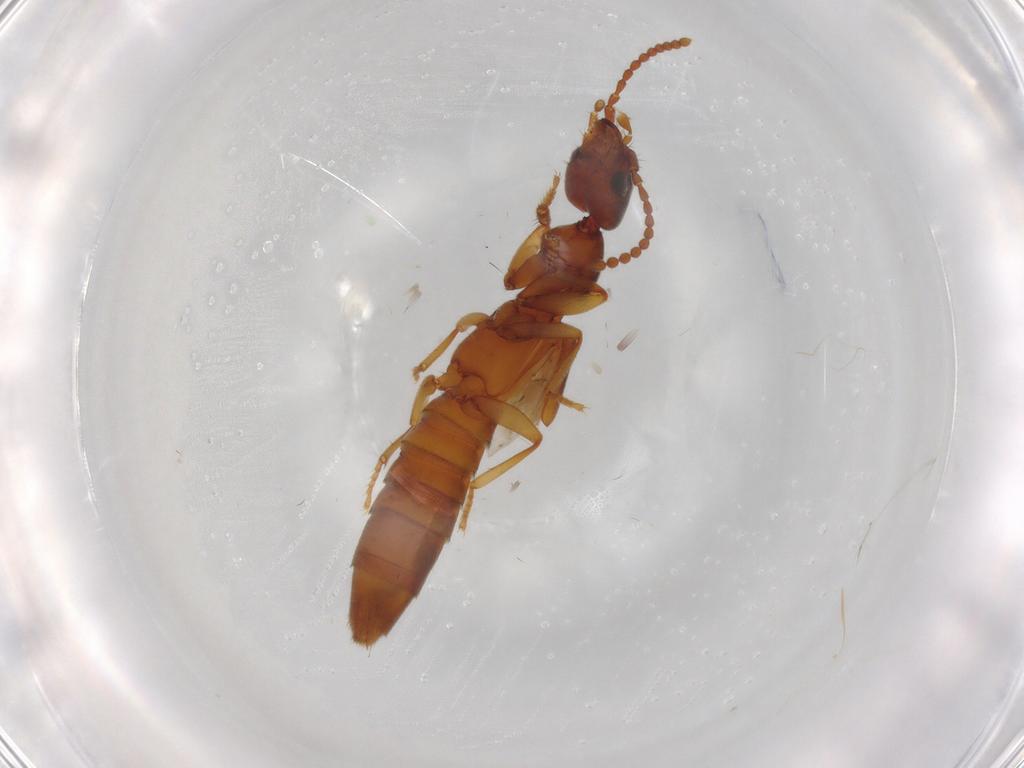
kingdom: Animalia
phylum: Arthropoda
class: Insecta
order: Coleoptera
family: Staphylinidae
